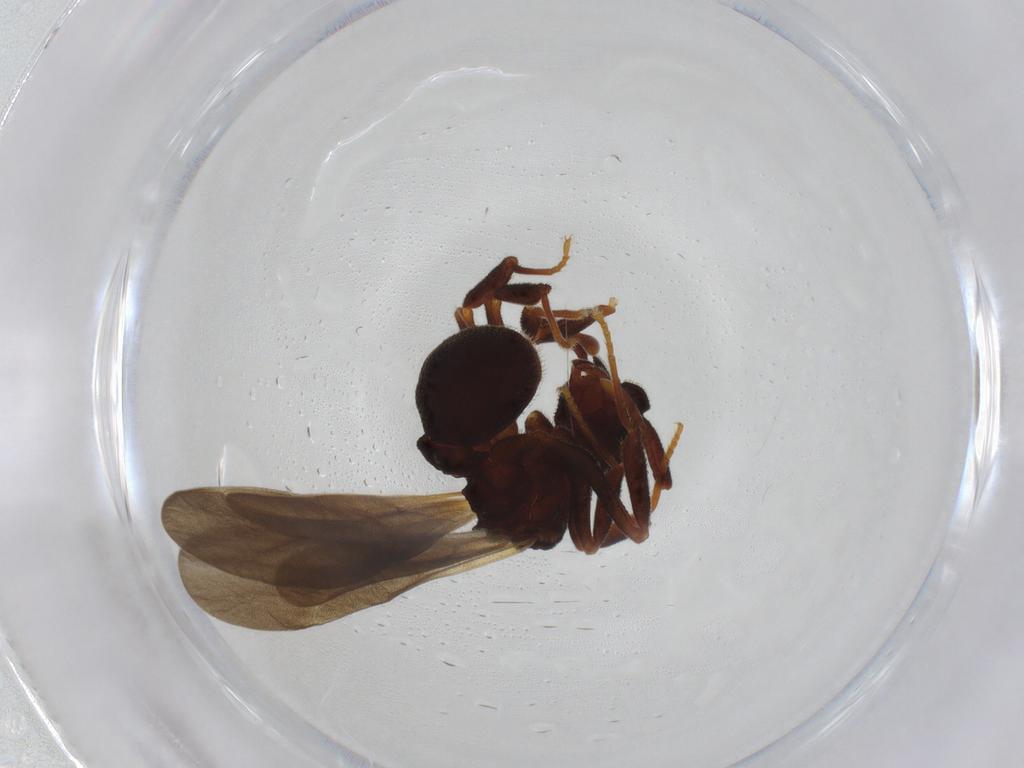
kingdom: Animalia
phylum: Arthropoda
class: Insecta
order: Hymenoptera
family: Formicidae
